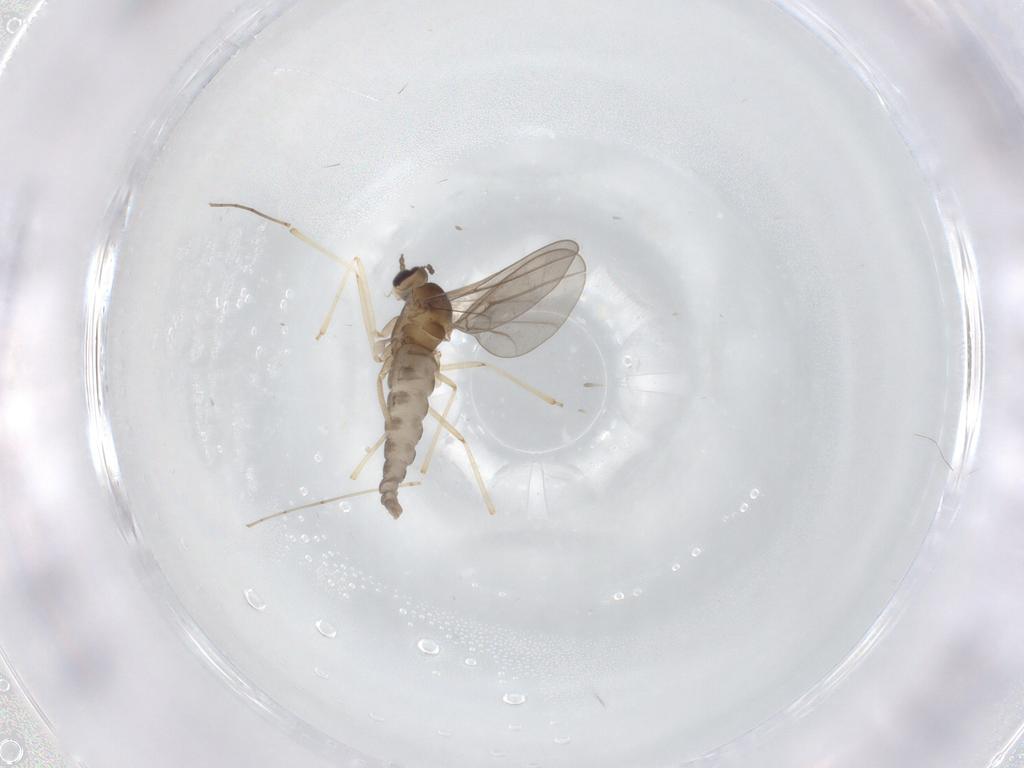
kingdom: Animalia
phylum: Arthropoda
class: Insecta
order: Diptera
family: Cecidomyiidae
